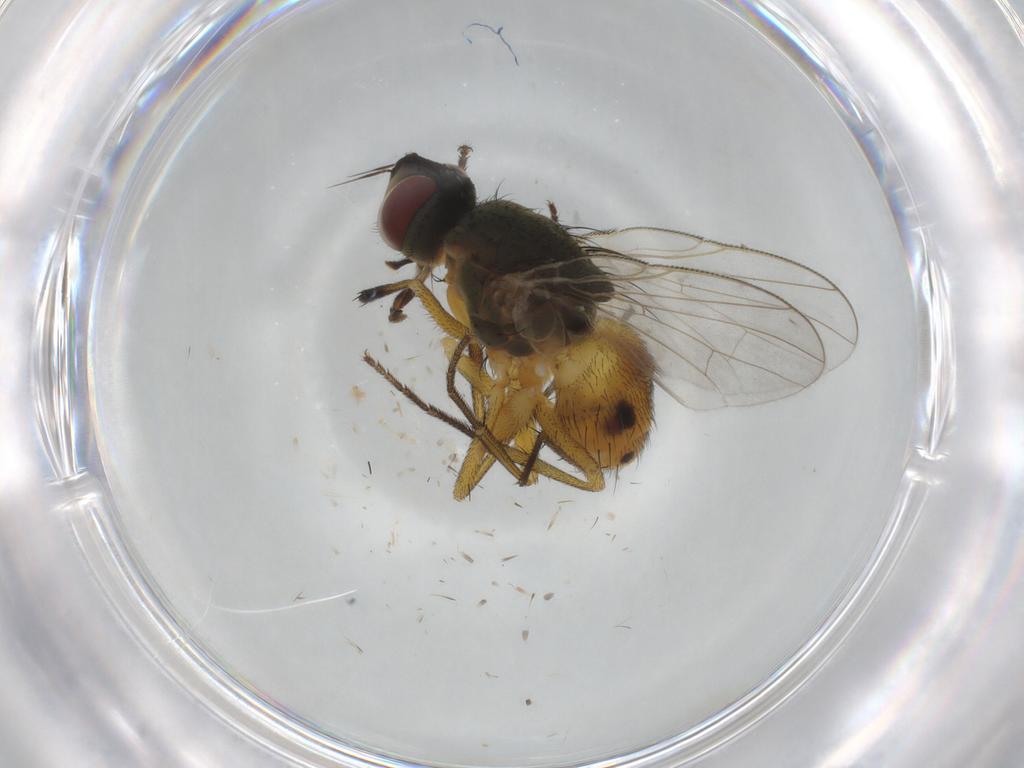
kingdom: Animalia
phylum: Arthropoda
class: Insecta
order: Diptera
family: Muscidae
